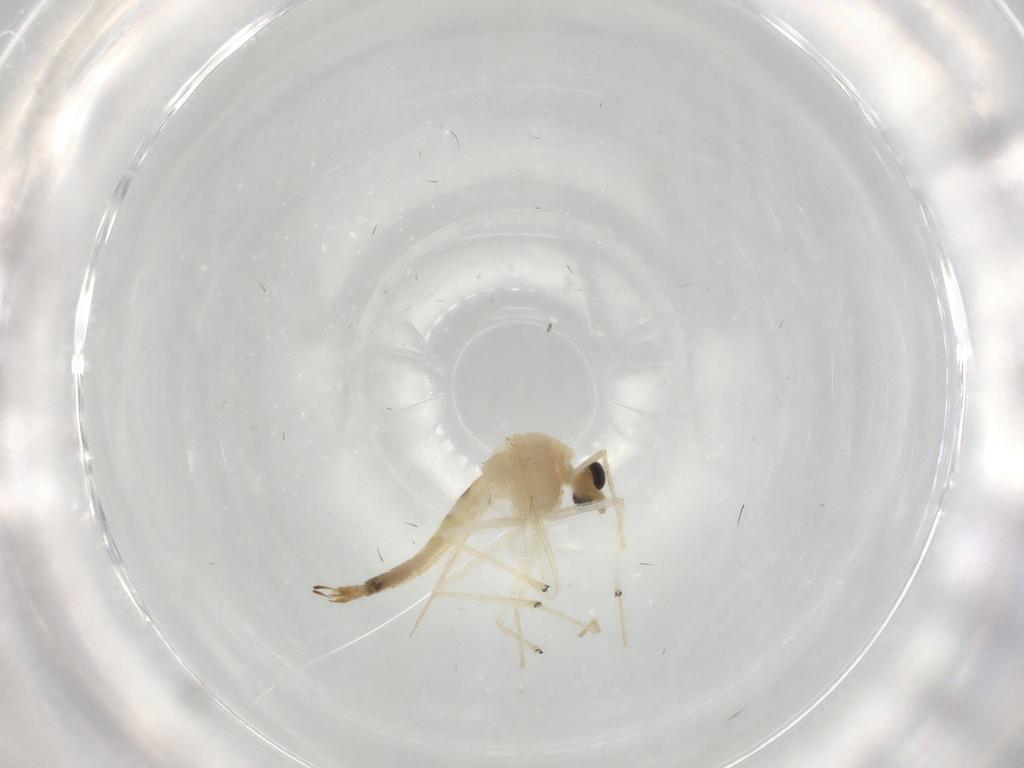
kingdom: Animalia
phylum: Arthropoda
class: Insecta
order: Diptera
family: Chironomidae
